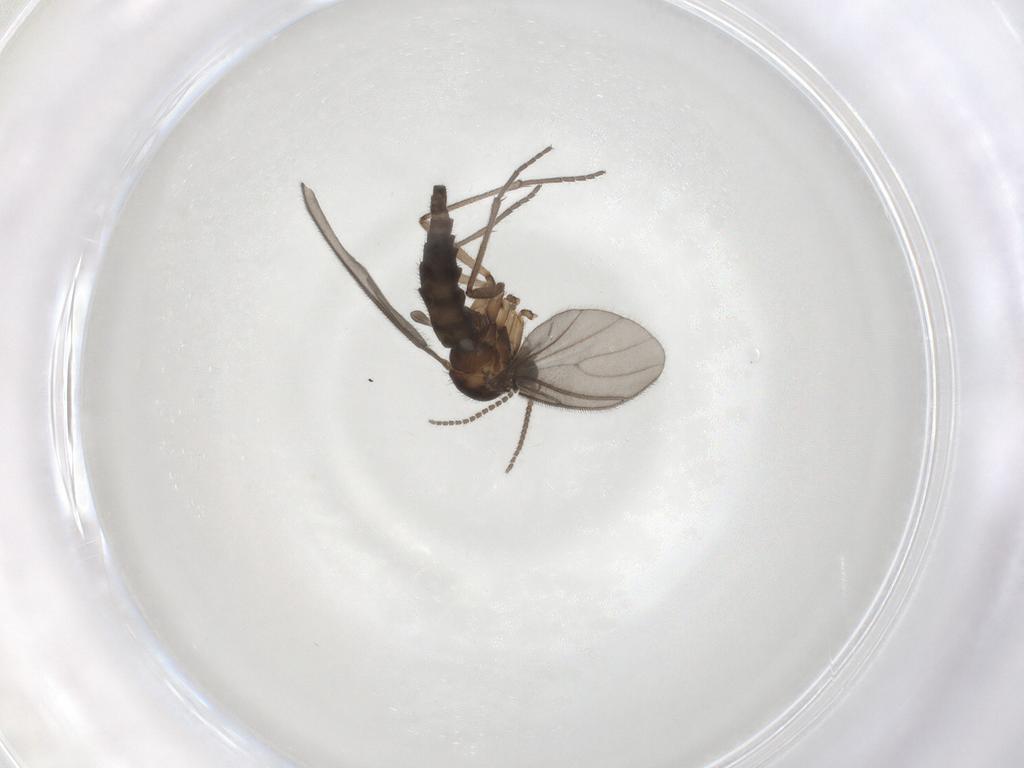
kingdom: Animalia
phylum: Arthropoda
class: Insecta
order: Diptera
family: Sciaridae
